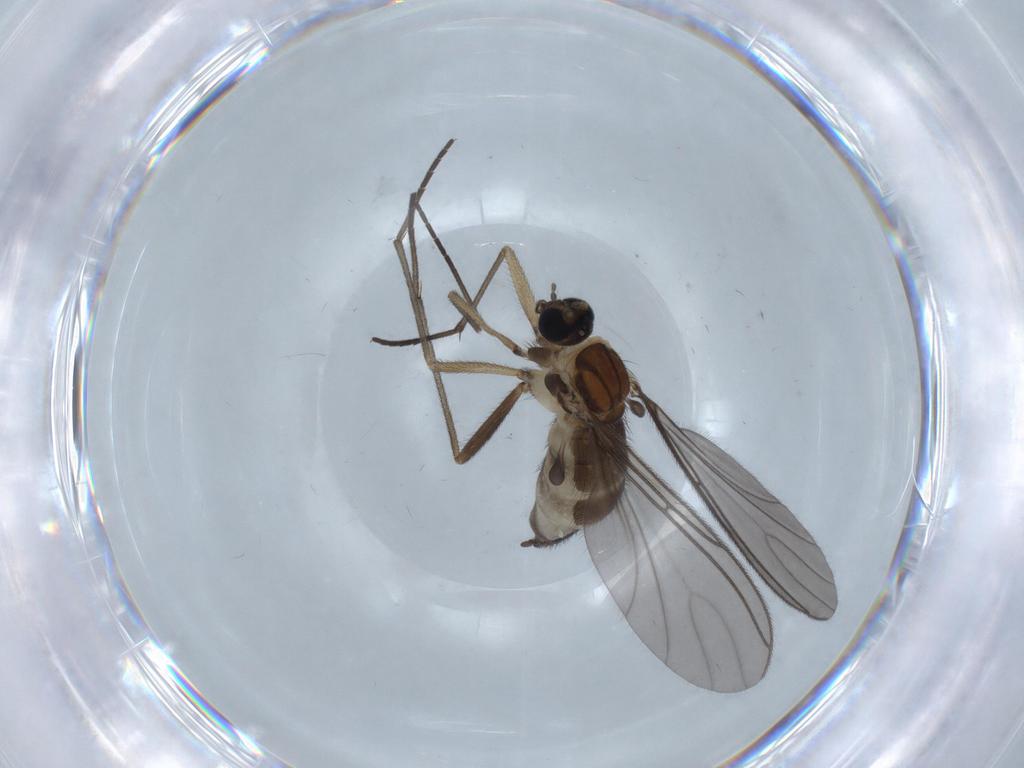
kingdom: Animalia
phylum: Arthropoda
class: Insecta
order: Diptera
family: Sciaridae
